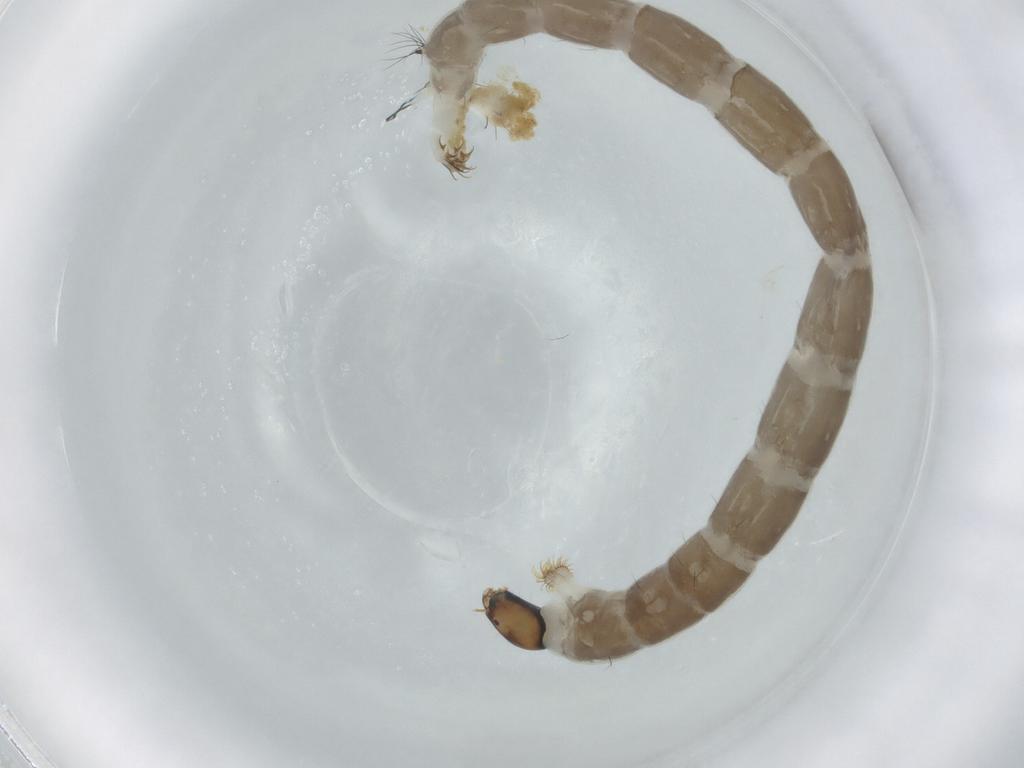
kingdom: Animalia
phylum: Arthropoda
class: Insecta
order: Diptera
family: Chironomidae
